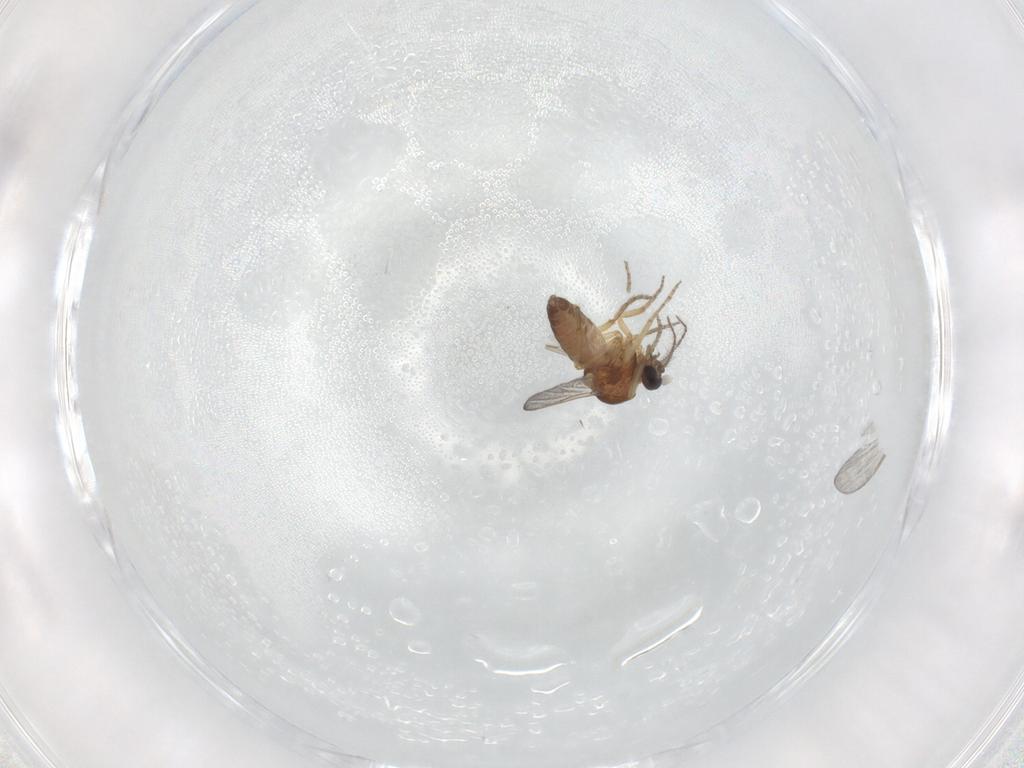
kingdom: Animalia
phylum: Arthropoda
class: Insecta
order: Diptera
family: Ceratopogonidae
